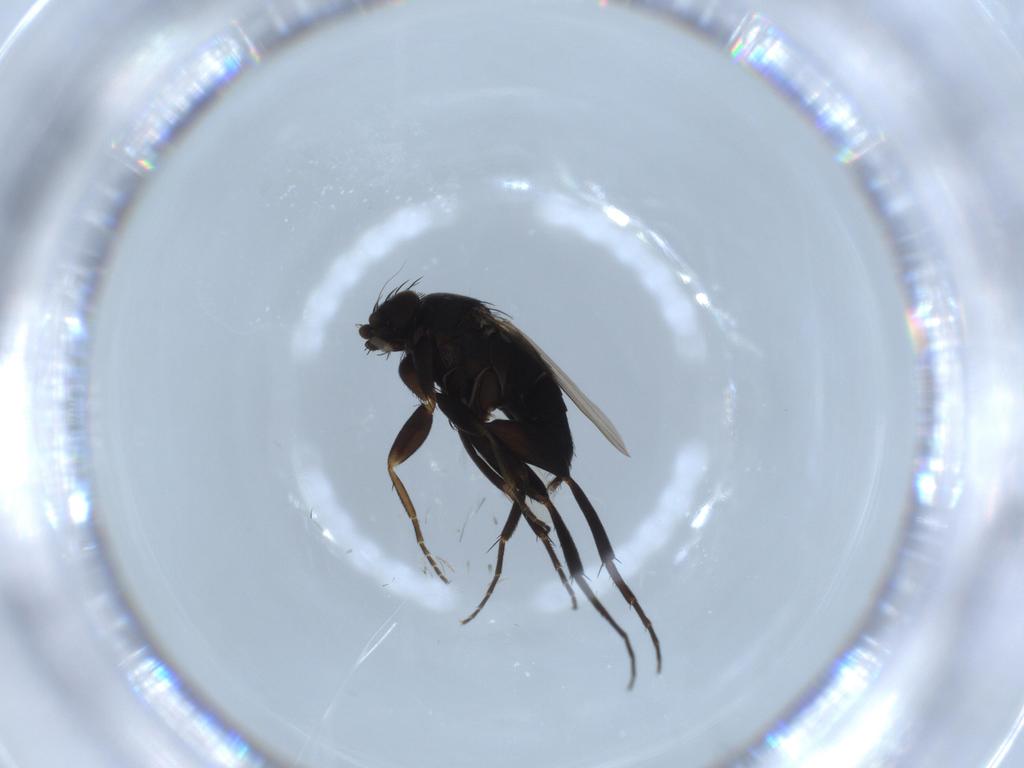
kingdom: Animalia
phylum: Arthropoda
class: Insecta
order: Diptera
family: Phoridae
